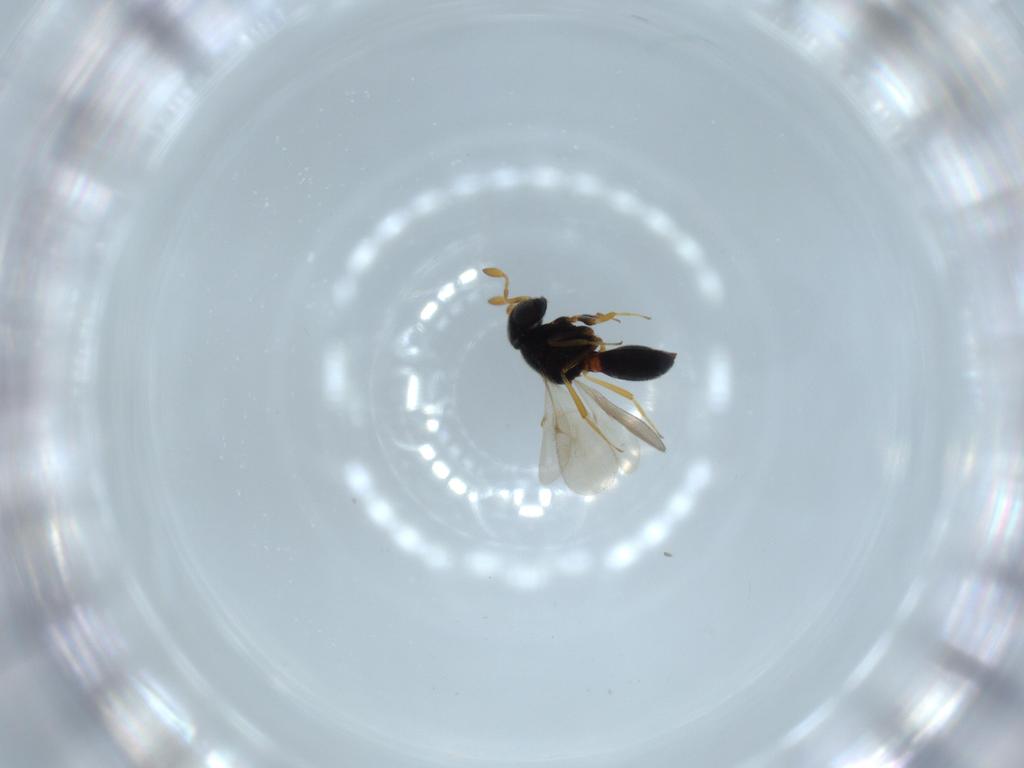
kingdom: Animalia
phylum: Arthropoda
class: Insecta
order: Hymenoptera
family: Scelionidae
